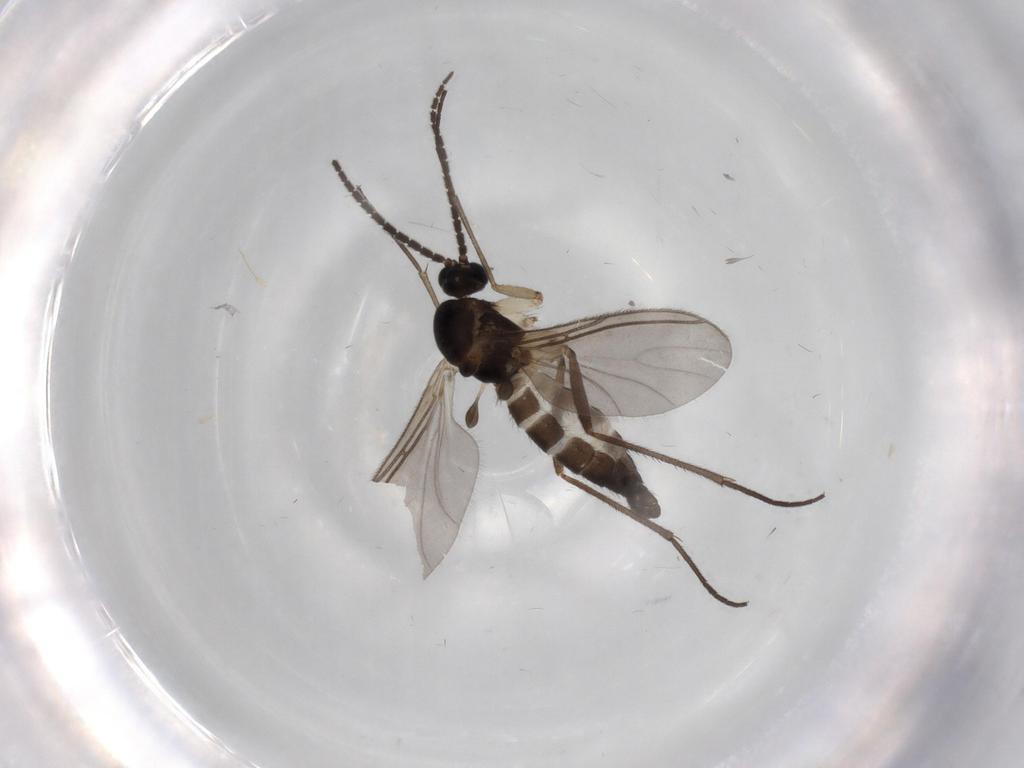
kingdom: Animalia
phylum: Arthropoda
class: Insecta
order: Diptera
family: Sciaridae
